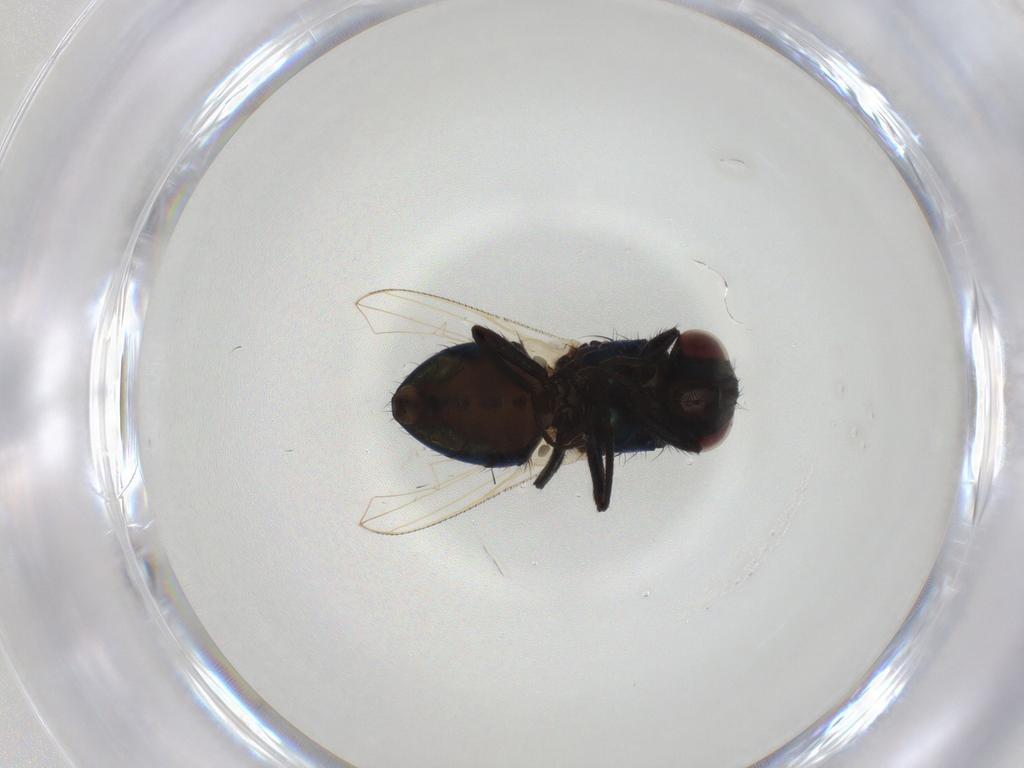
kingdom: Animalia
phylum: Arthropoda
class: Insecta
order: Diptera
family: Muscidae
